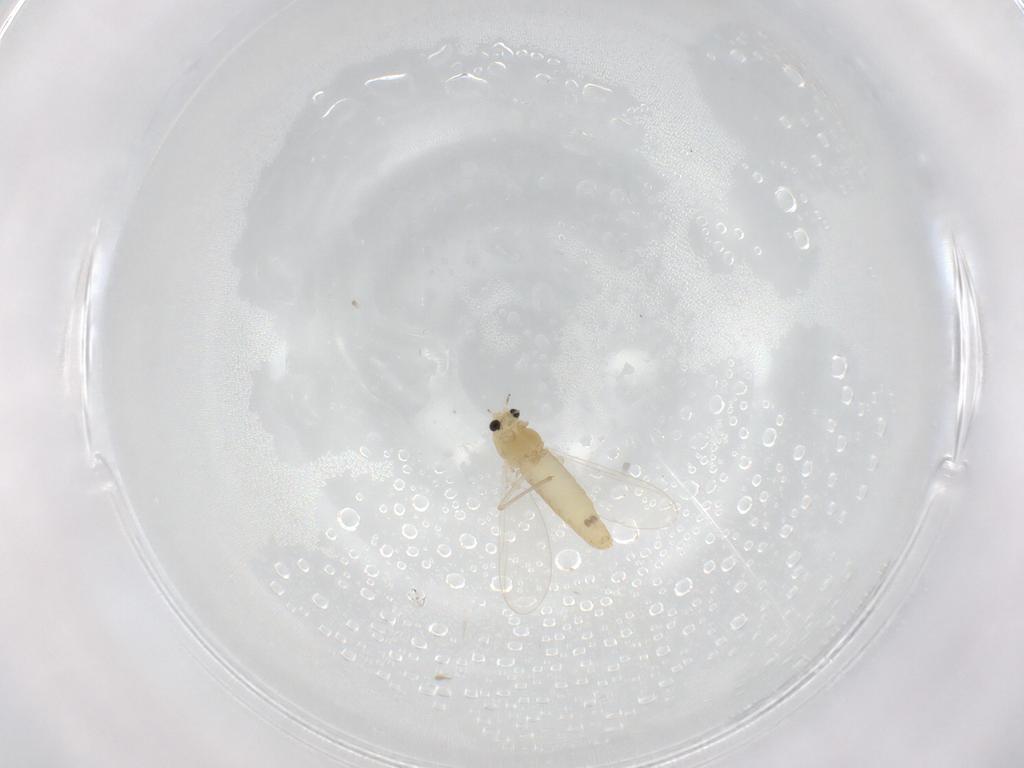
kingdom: Animalia
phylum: Arthropoda
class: Insecta
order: Diptera
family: Chironomidae
